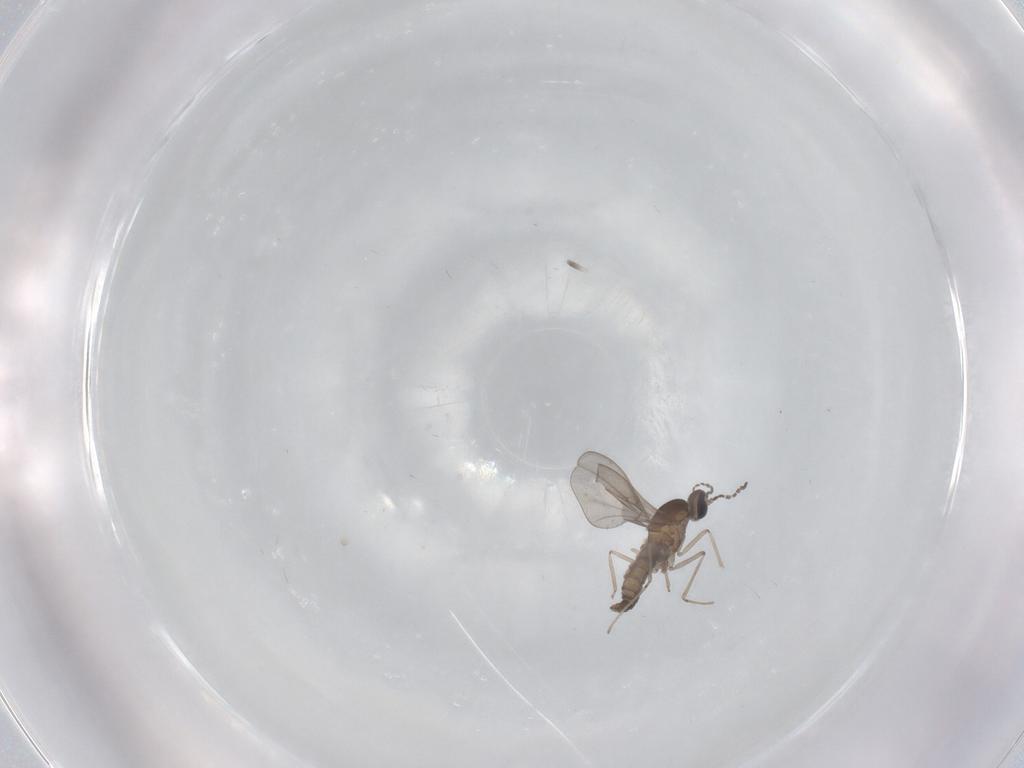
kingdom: Animalia
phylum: Arthropoda
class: Insecta
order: Diptera
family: Cecidomyiidae
